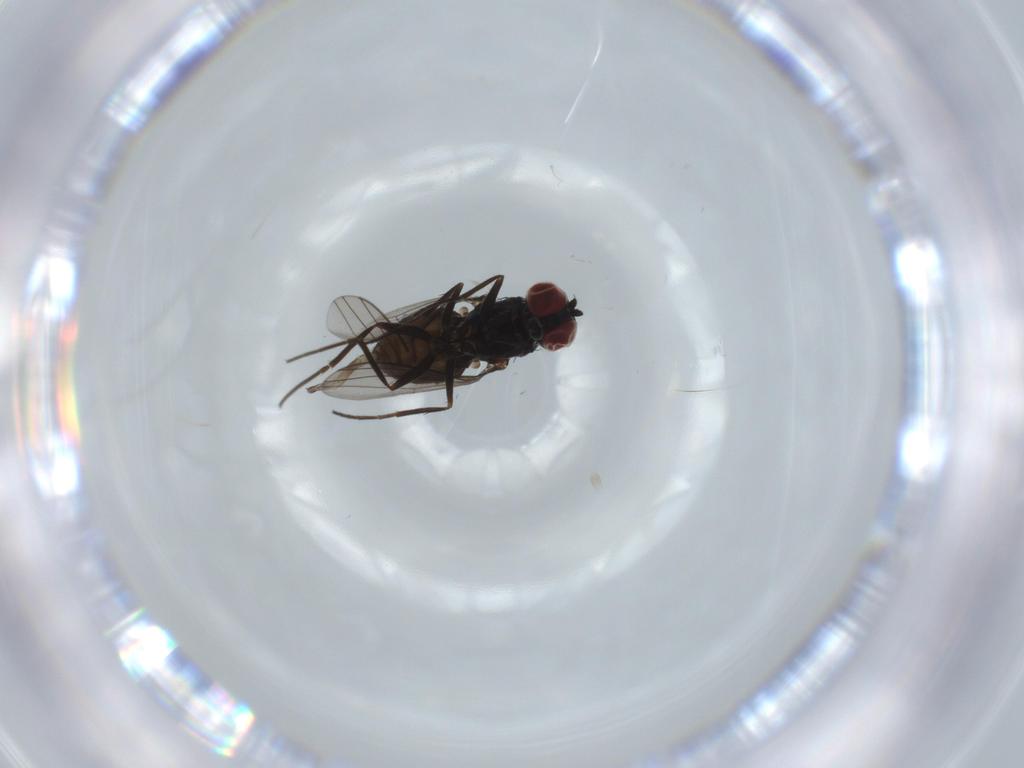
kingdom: Animalia
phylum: Arthropoda
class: Insecta
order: Diptera
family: Dolichopodidae
